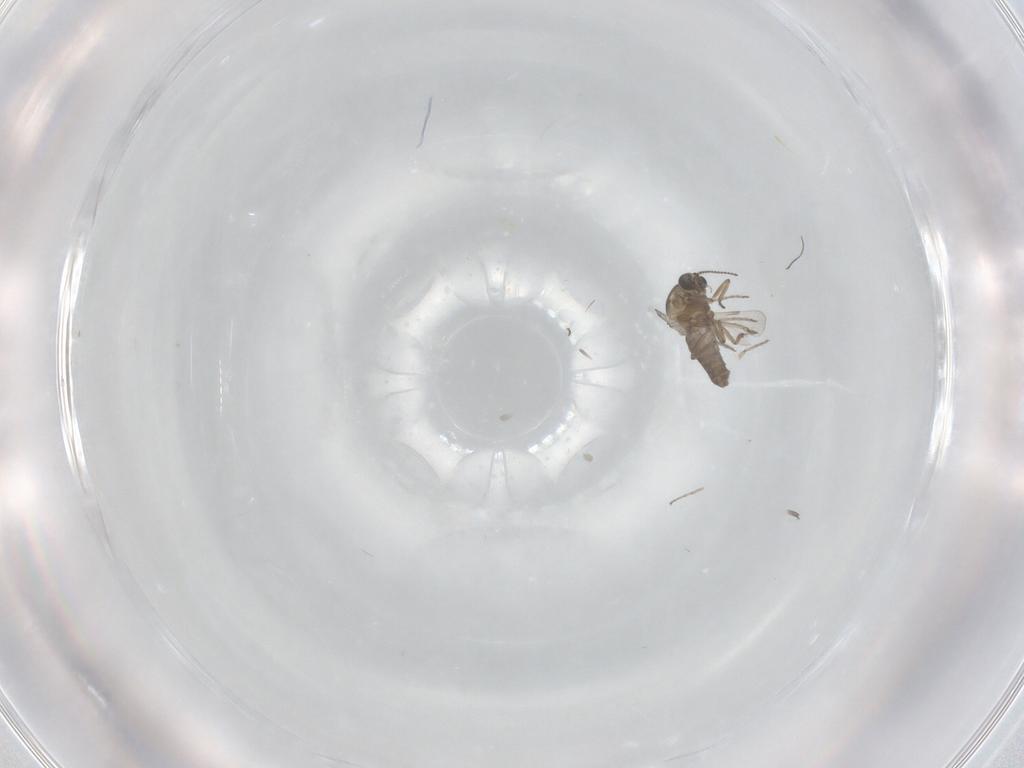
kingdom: Animalia
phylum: Arthropoda
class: Insecta
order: Diptera
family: Ceratopogonidae
